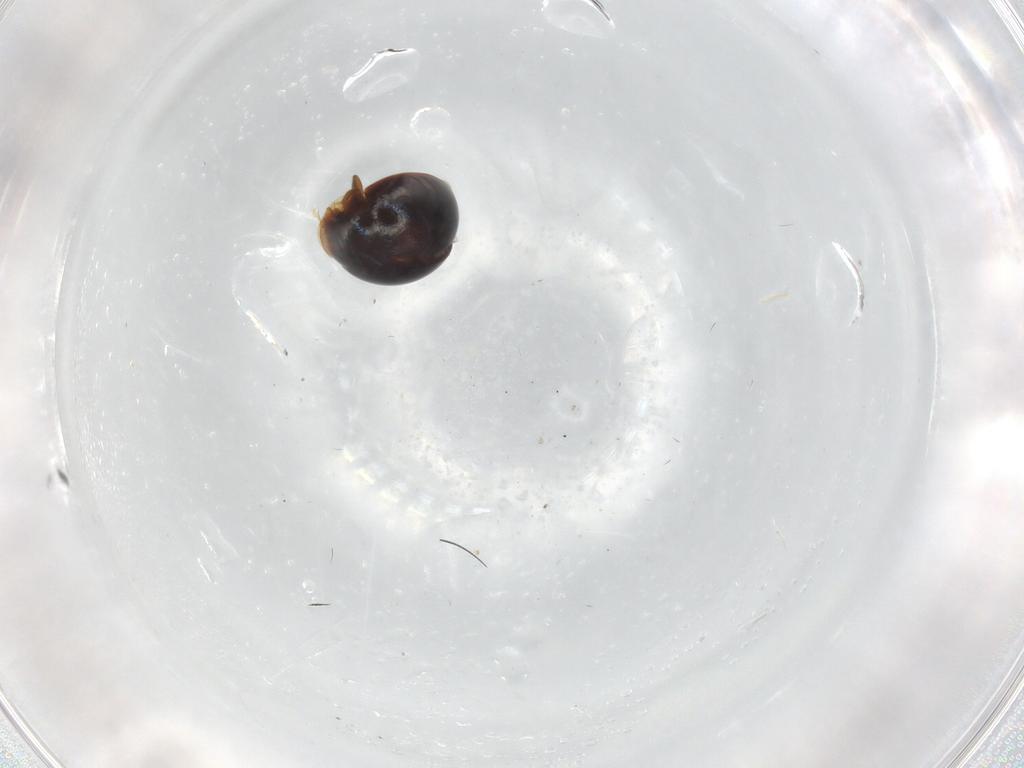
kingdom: Animalia
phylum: Arthropoda
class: Insecta
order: Coleoptera
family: Corylophidae
